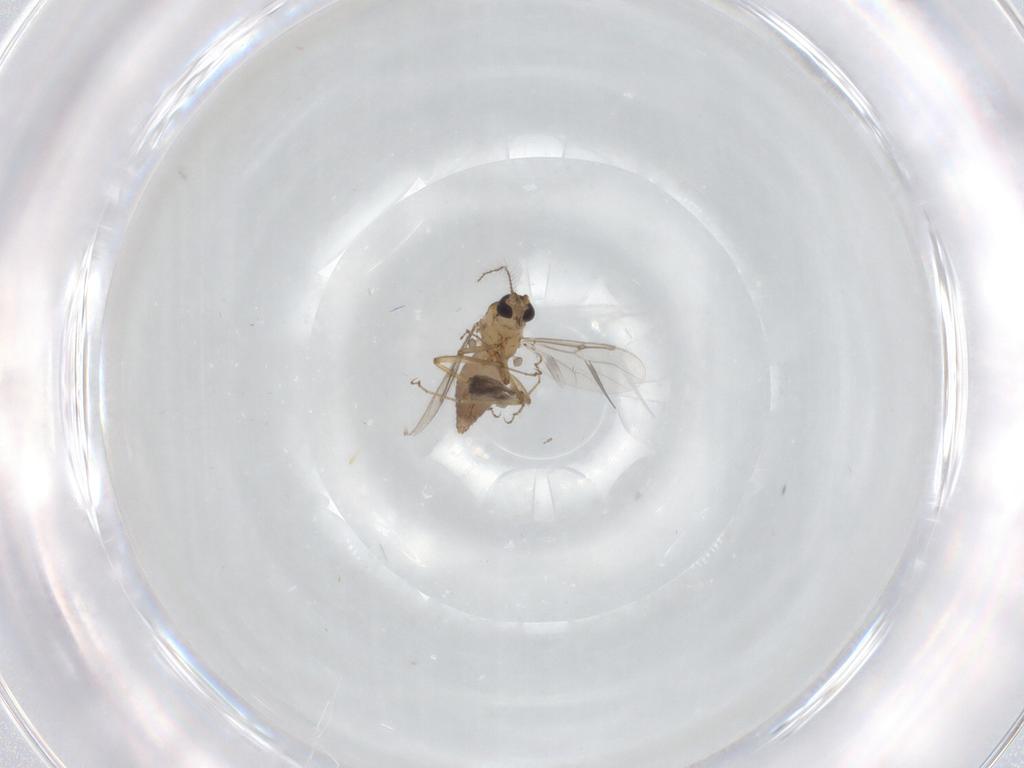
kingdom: Animalia
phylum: Arthropoda
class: Insecta
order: Diptera
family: Ceratopogonidae
